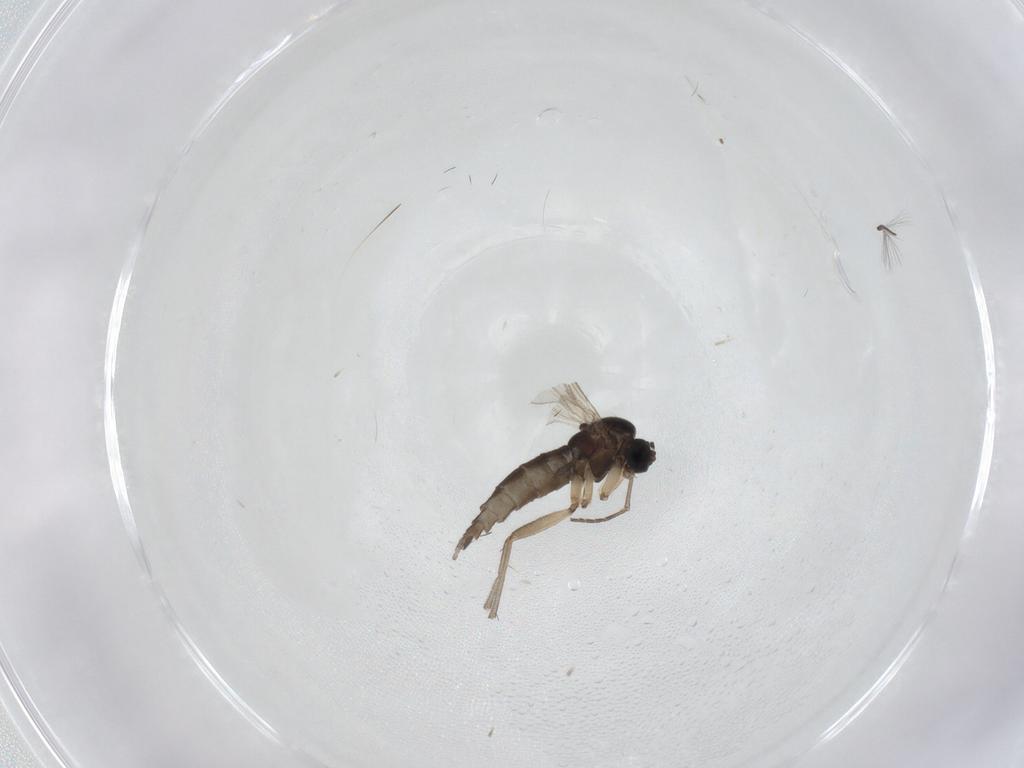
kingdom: Animalia
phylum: Arthropoda
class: Insecta
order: Diptera
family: Sciaridae
